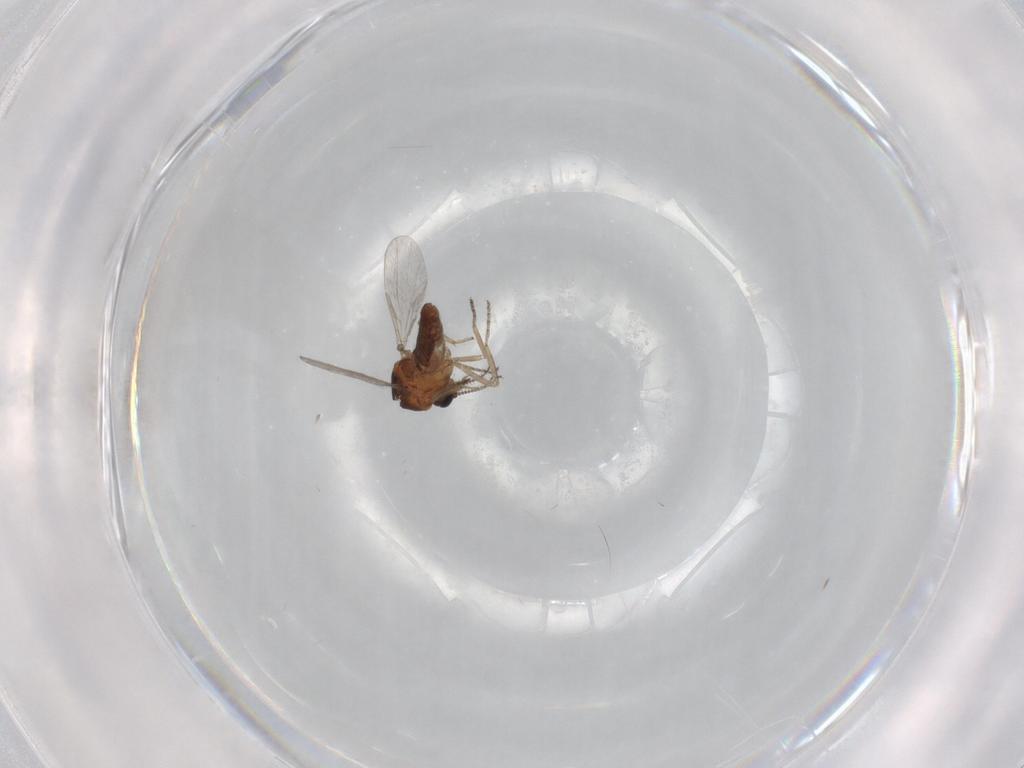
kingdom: Animalia
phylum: Arthropoda
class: Insecta
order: Diptera
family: Ceratopogonidae
